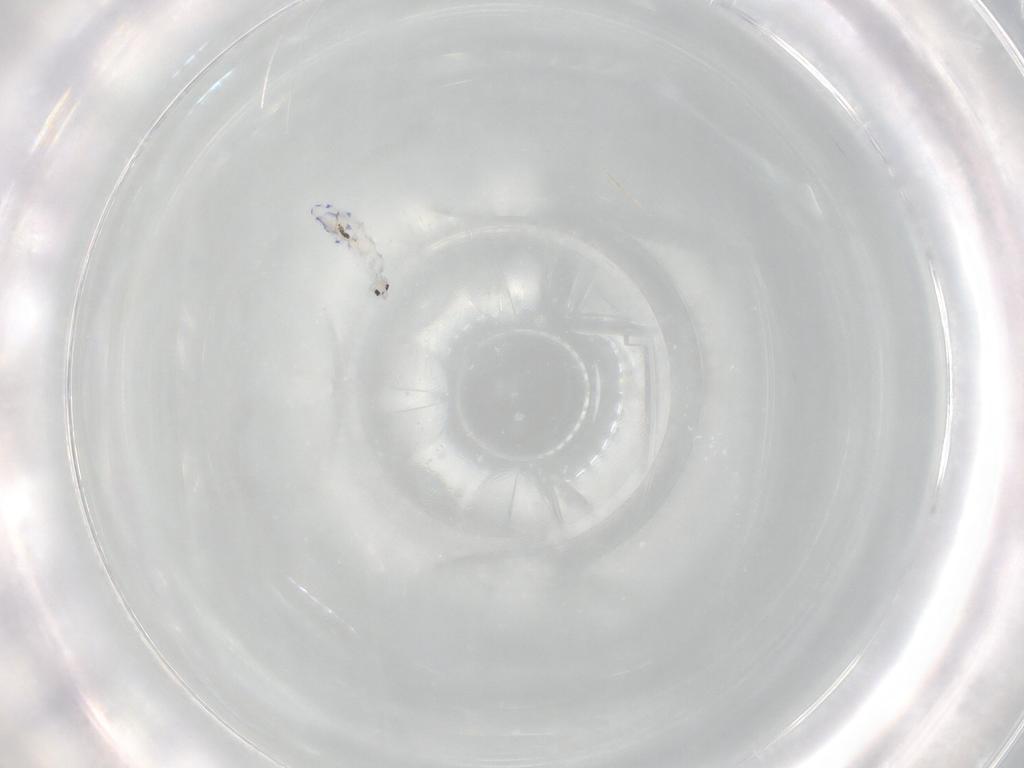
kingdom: Animalia
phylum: Arthropoda
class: Collembola
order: Entomobryomorpha
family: Entomobryidae
